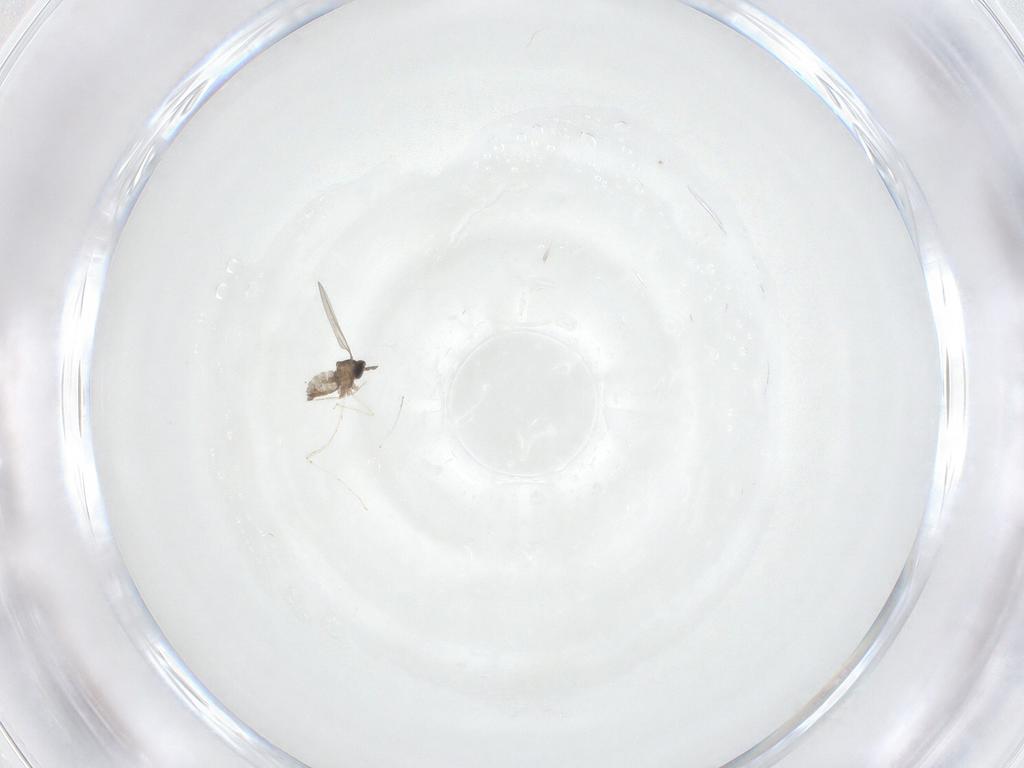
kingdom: Animalia
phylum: Arthropoda
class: Insecta
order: Diptera
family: Cecidomyiidae
